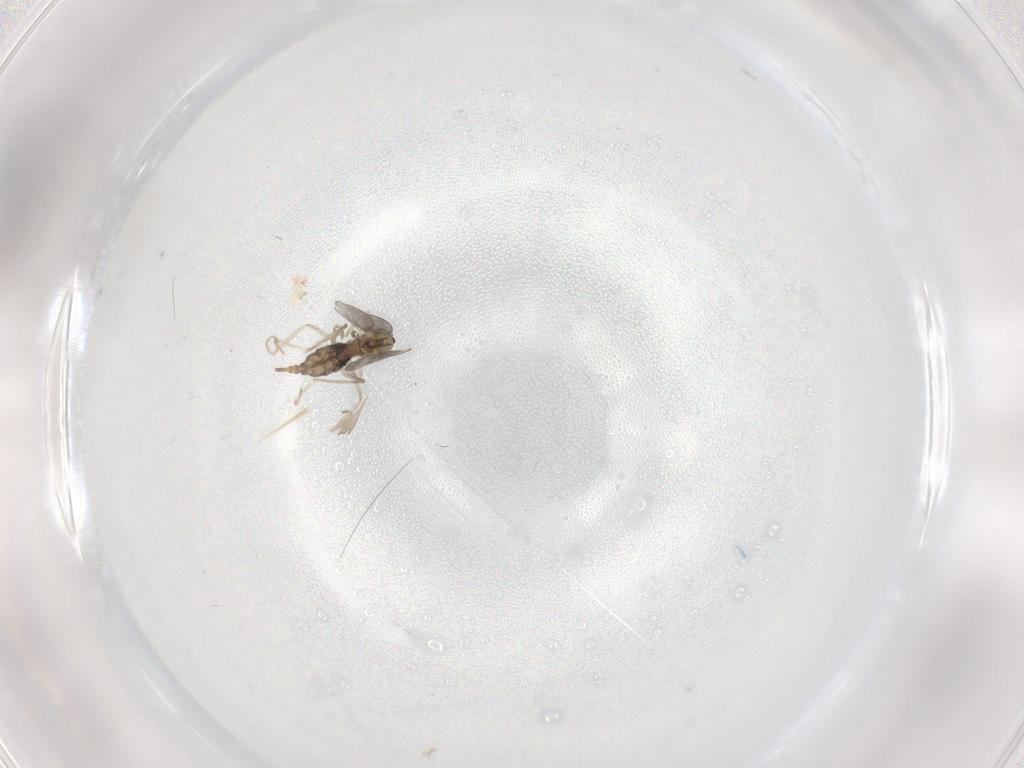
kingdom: Animalia
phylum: Arthropoda
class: Insecta
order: Diptera
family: Cecidomyiidae
